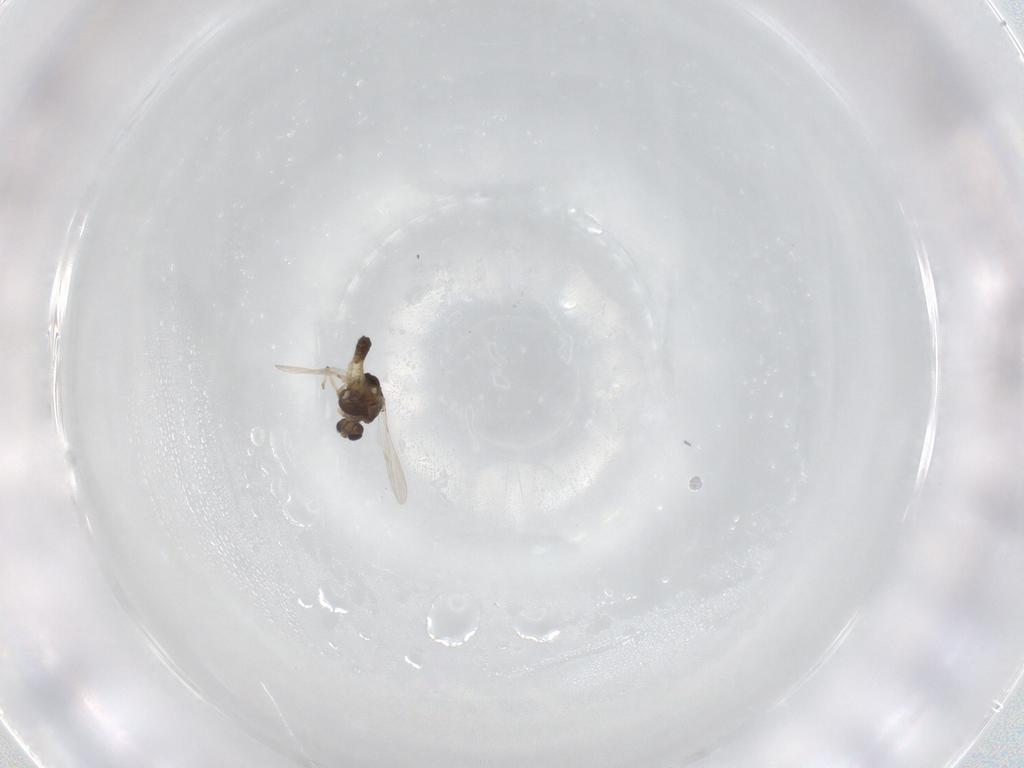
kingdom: Animalia
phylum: Arthropoda
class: Insecta
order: Diptera
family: Chironomidae
